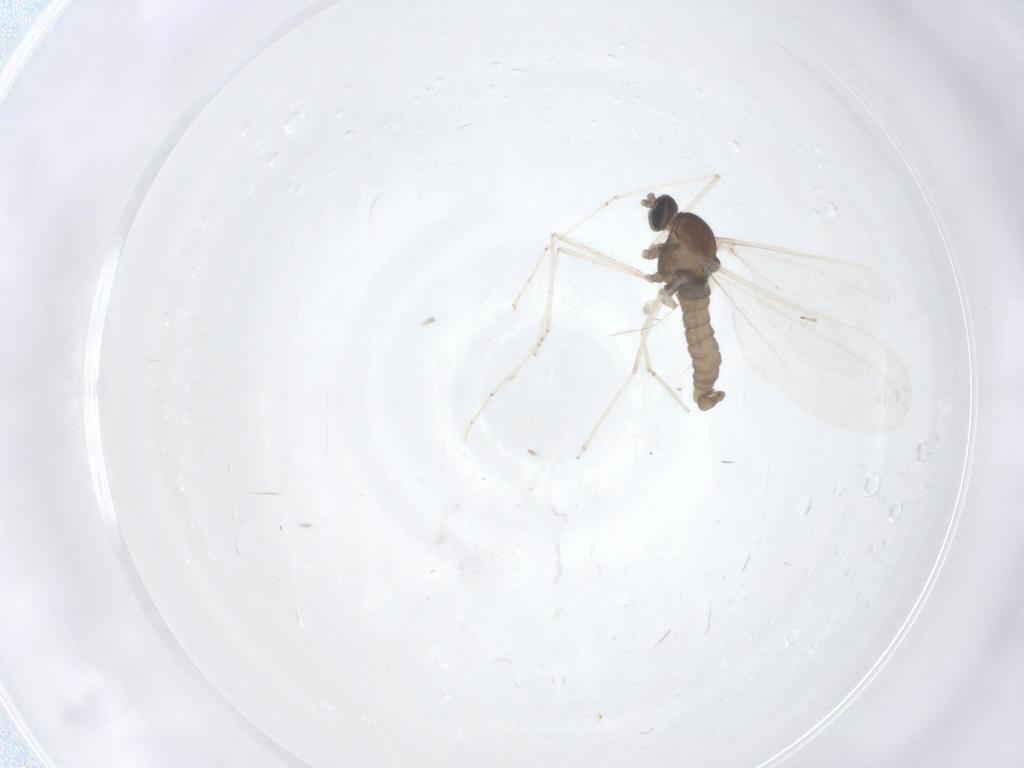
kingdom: Animalia
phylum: Arthropoda
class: Insecta
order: Diptera
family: Cecidomyiidae
